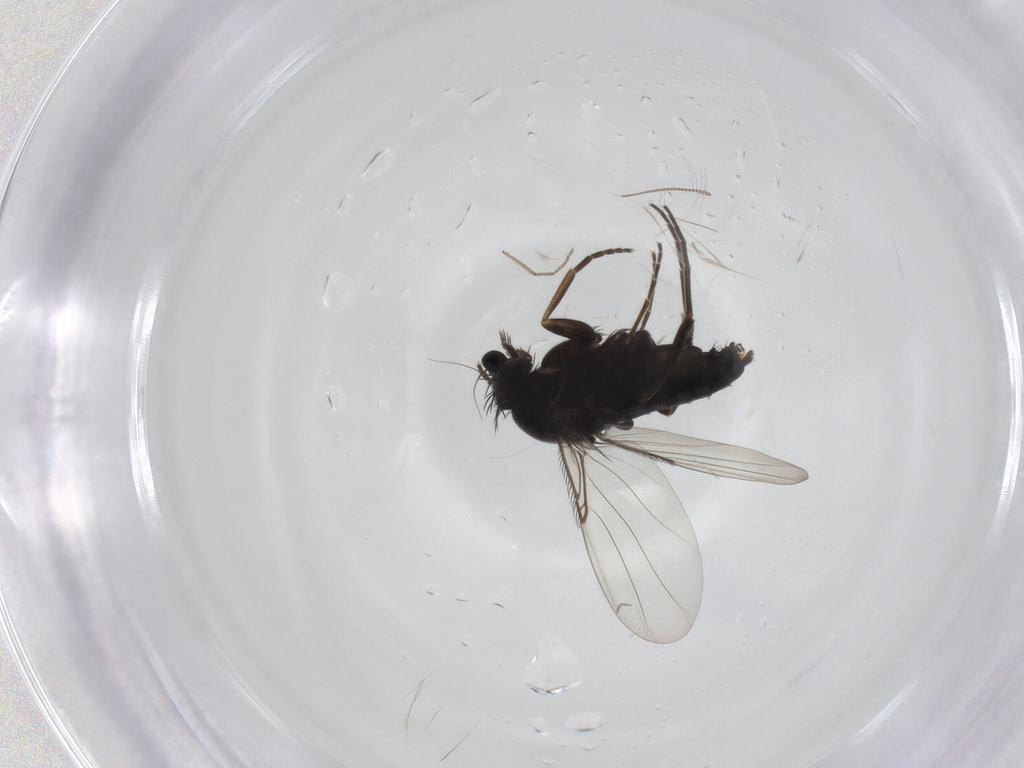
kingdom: Animalia
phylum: Arthropoda
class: Insecta
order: Diptera
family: Phoridae
